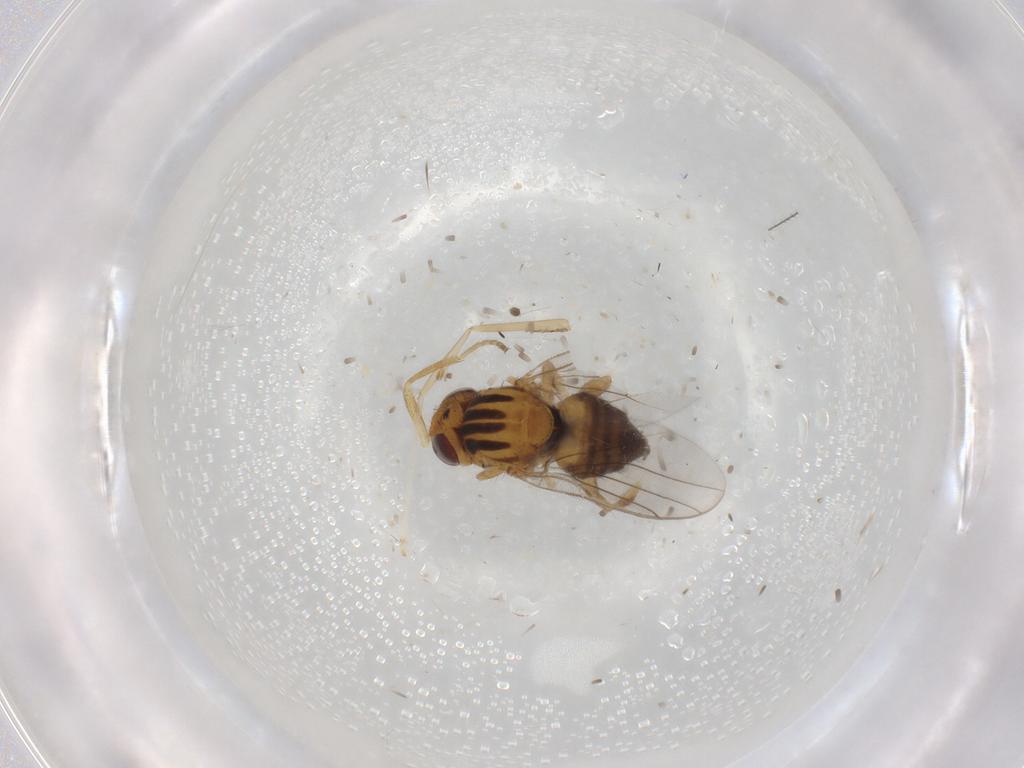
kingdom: Animalia
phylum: Arthropoda
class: Insecta
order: Diptera
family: Chloropidae
